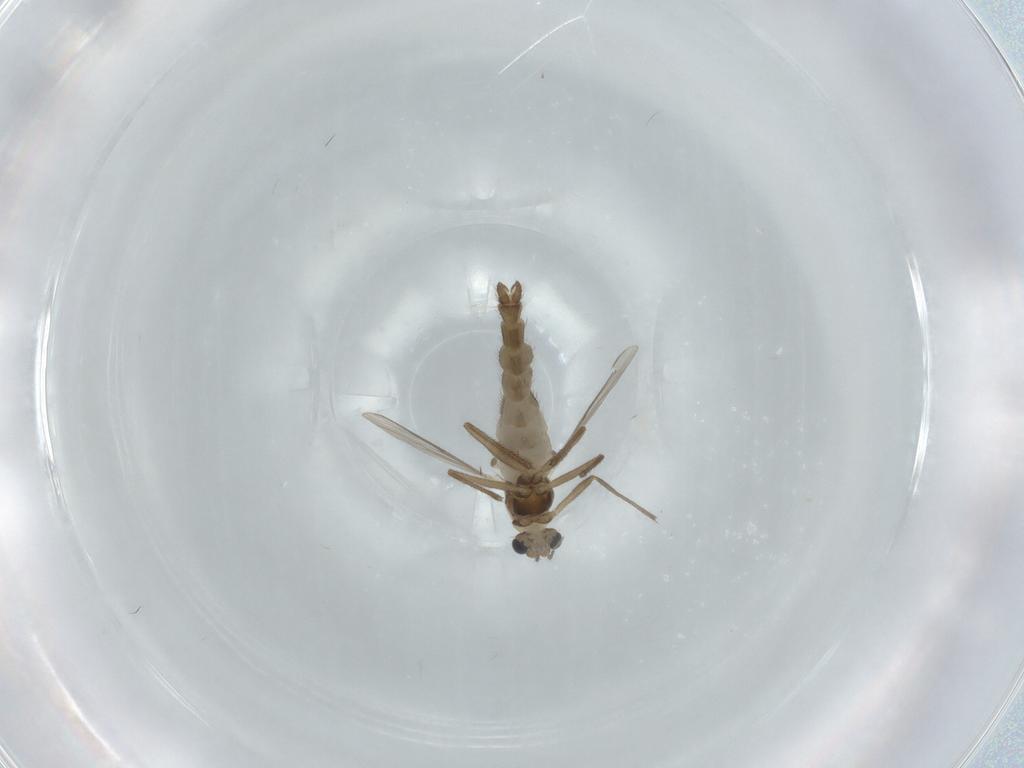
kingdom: Animalia
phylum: Arthropoda
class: Insecta
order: Diptera
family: Chironomidae
